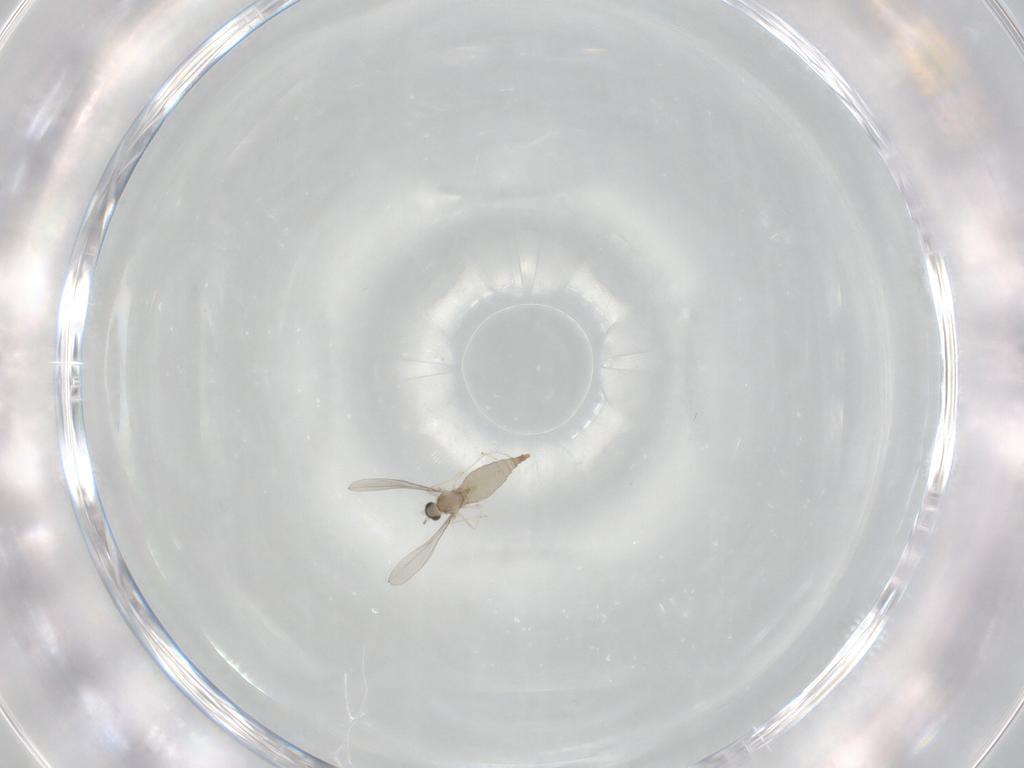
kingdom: Animalia
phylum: Arthropoda
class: Insecta
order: Diptera
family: Cecidomyiidae
